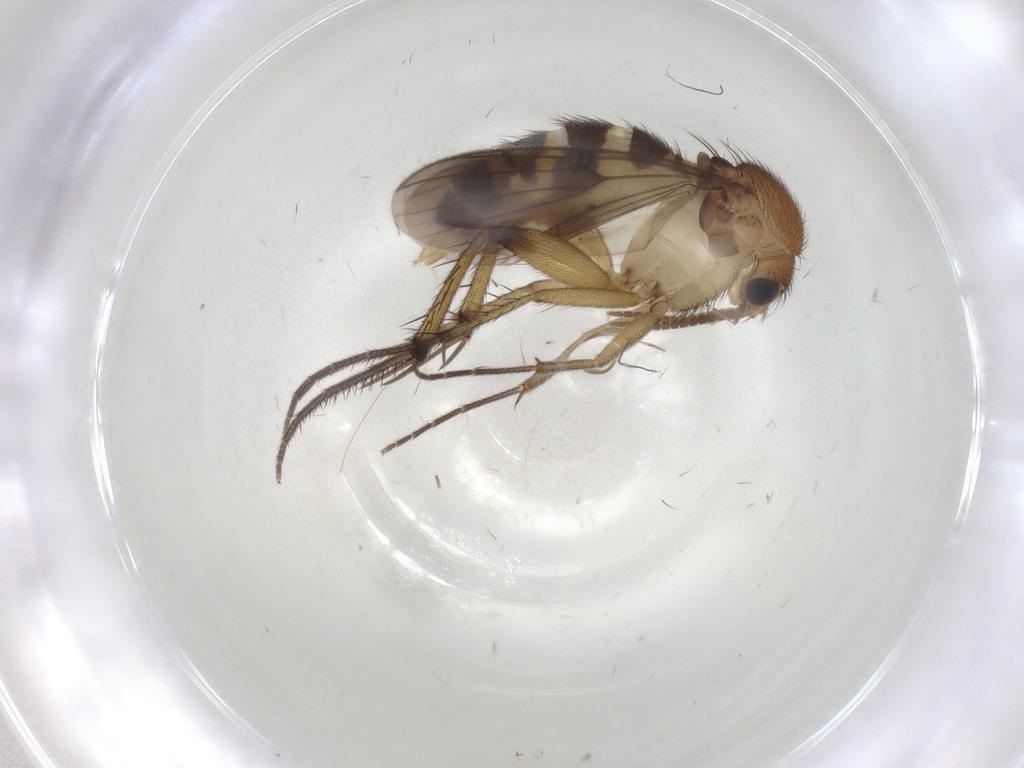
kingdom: Animalia
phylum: Arthropoda
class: Insecta
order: Diptera
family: Mycetophilidae
